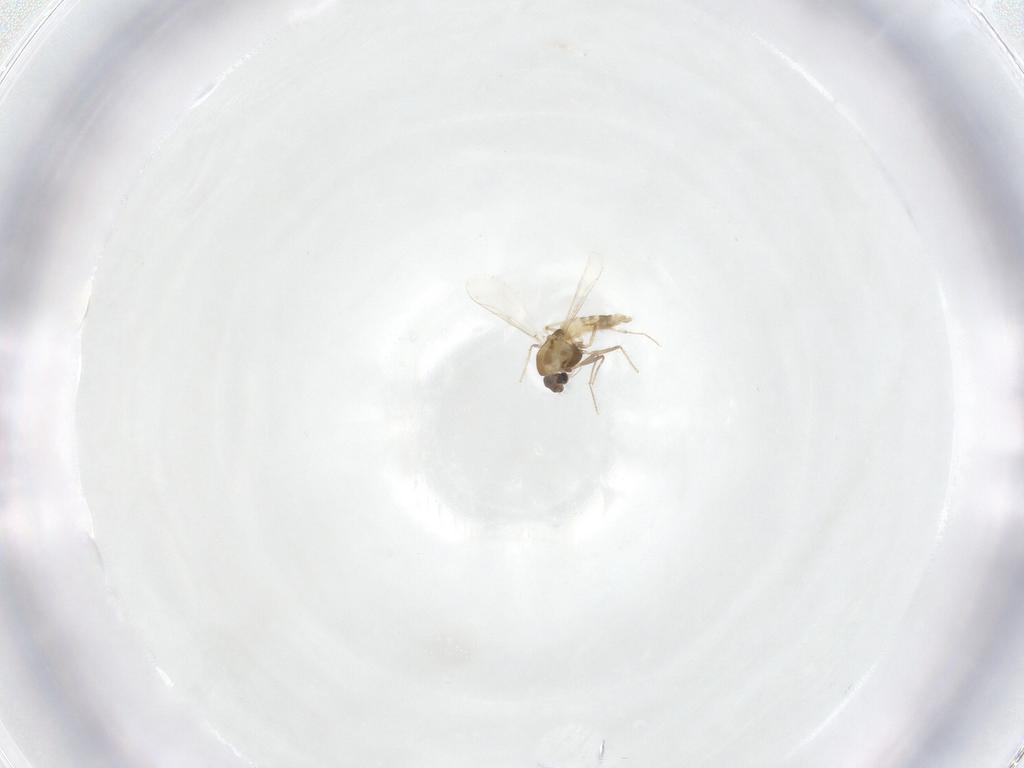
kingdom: Animalia
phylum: Arthropoda
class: Insecta
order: Diptera
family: Chironomidae
